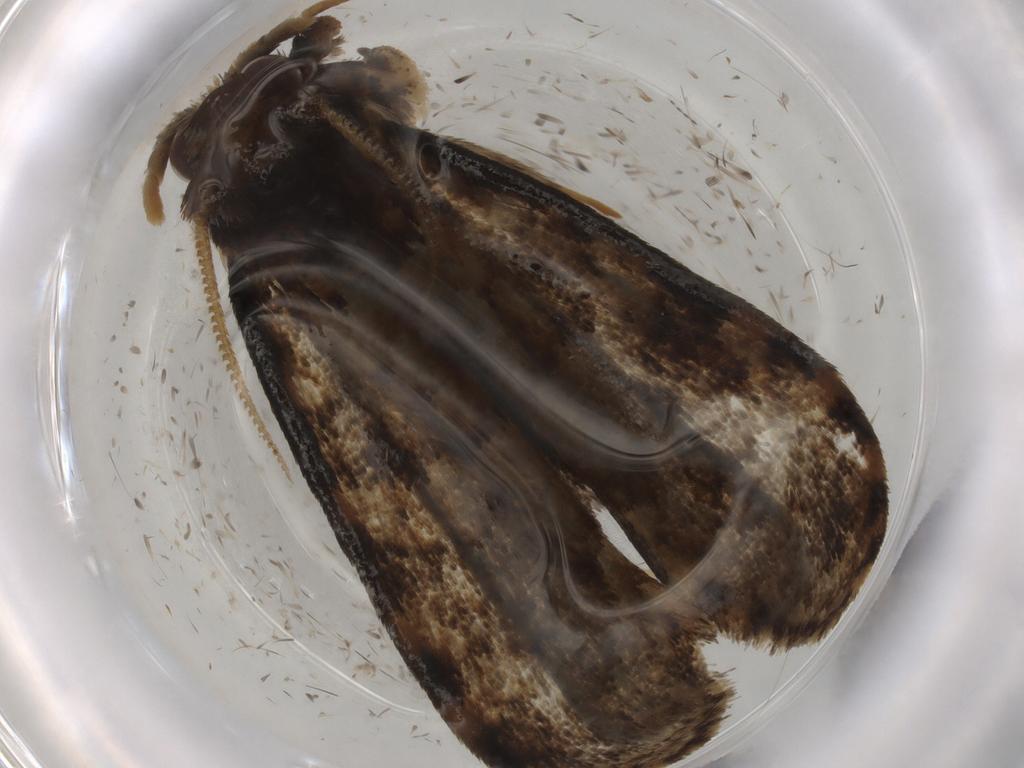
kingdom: Animalia
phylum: Arthropoda
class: Insecta
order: Lepidoptera
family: Tineidae
